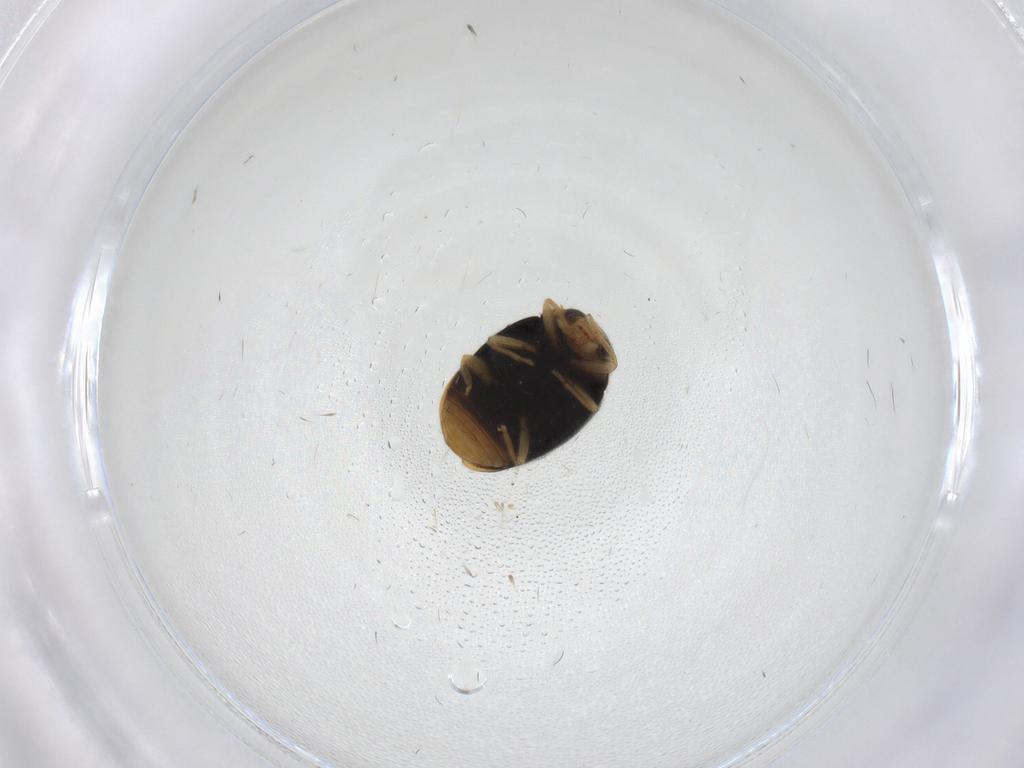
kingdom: Animalia
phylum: Arthropoda
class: Insecta
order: Coleoptera
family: Coccinellidae
